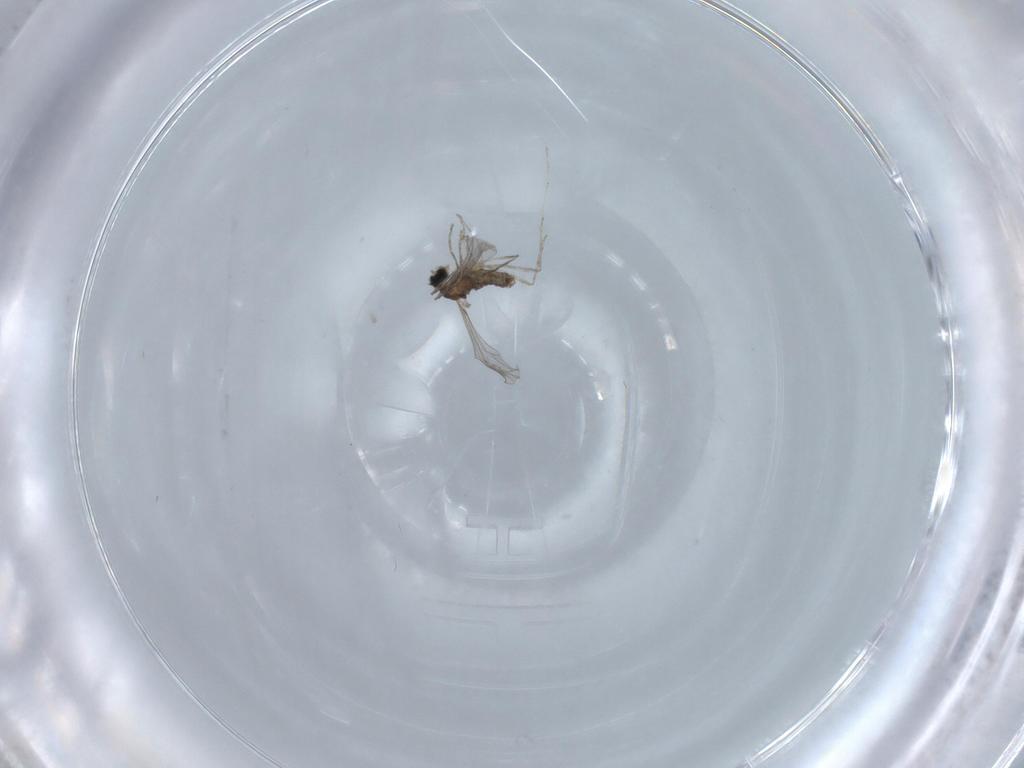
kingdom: Animalia
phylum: Arthropoda
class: Insecta
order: Diptera
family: Cecidomyiidae
